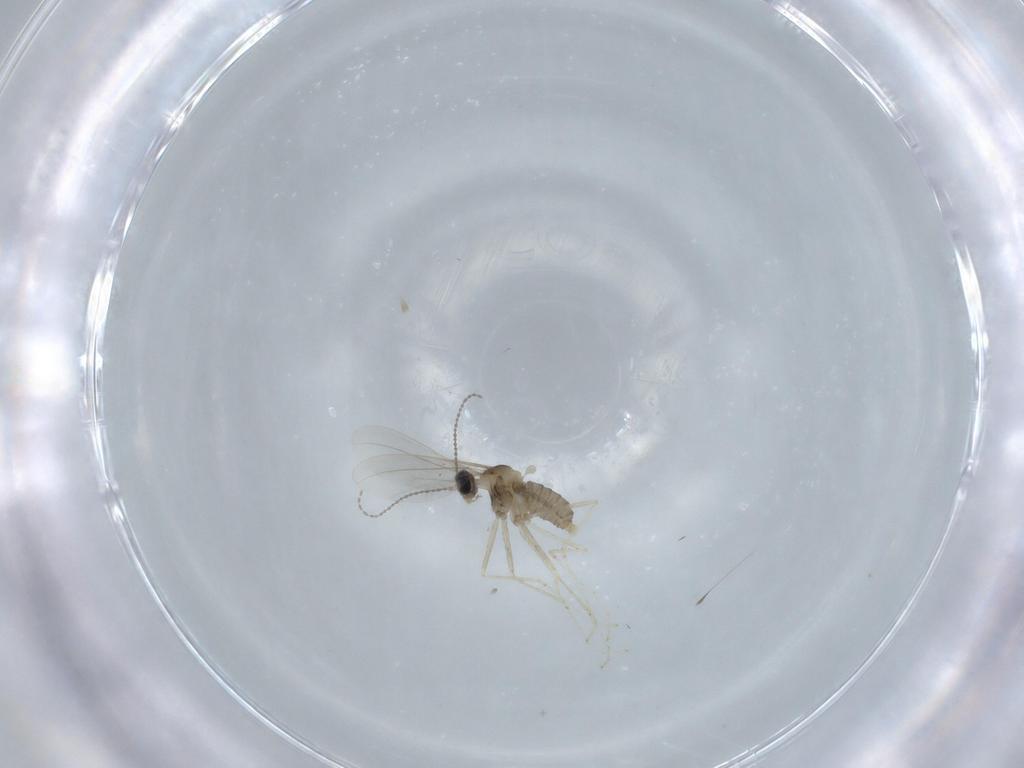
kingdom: Animalia
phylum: Arthropoda
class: Insecta
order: Diptera
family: Cecidomyiidae
